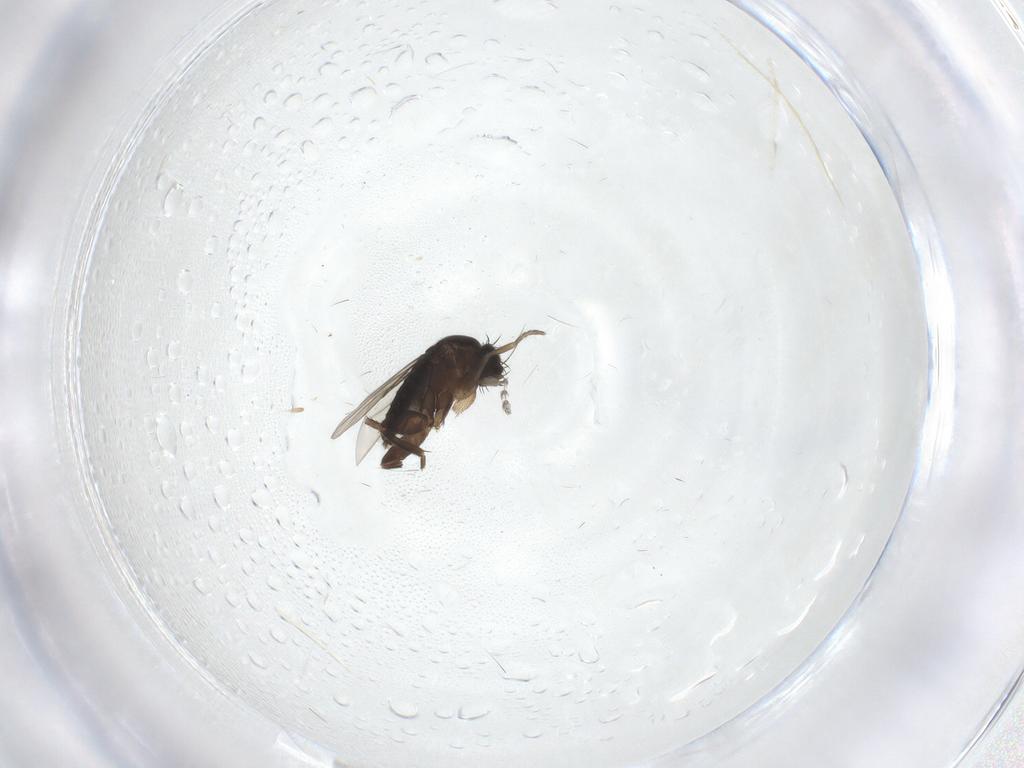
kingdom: Animalia
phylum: Arthropoda
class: Insecta
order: Diptera
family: Phoridae
